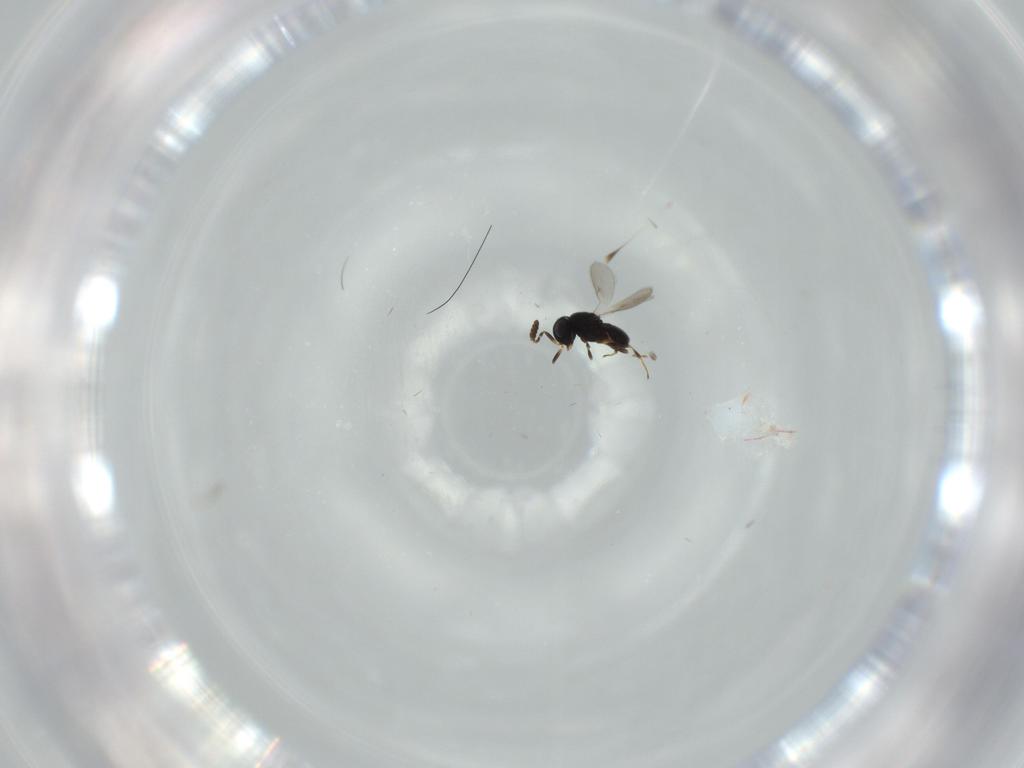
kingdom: Animalia
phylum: Arthropoda
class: Insecta
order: Hymenoptera
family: Scelionidae
